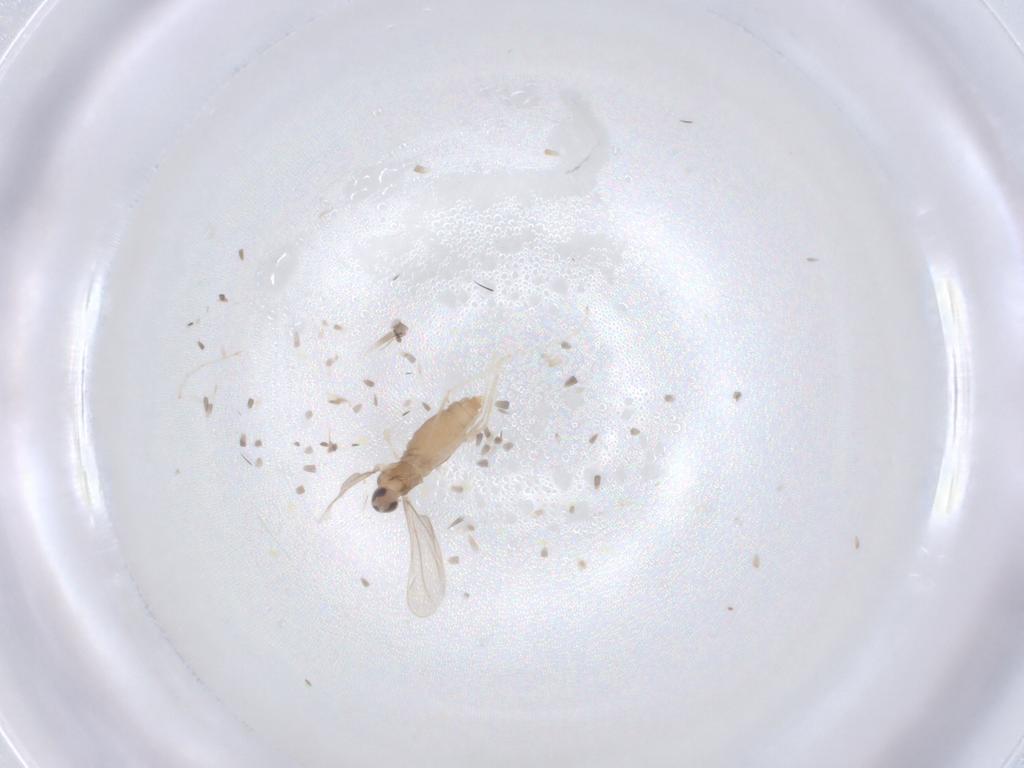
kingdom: Animalia
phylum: Arthropoda
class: Insecta
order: Diptera
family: Cecidomyiidae
